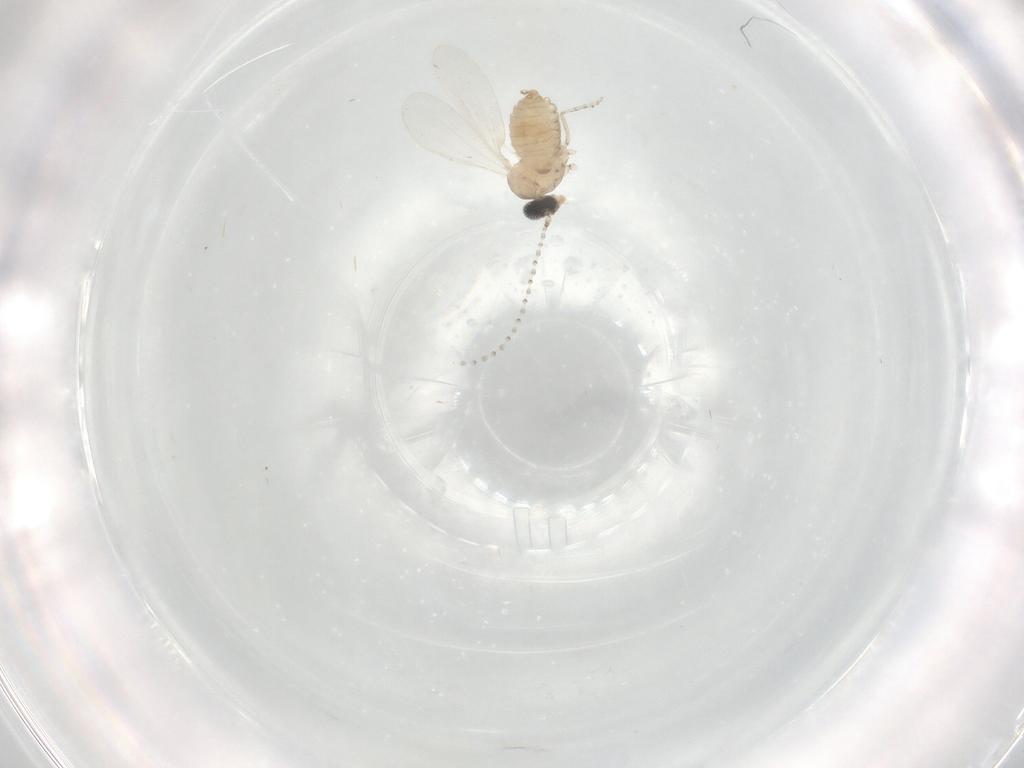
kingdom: Animalia
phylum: Arthropoda
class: Insecta
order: Diptera
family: Cecidomyiidae
